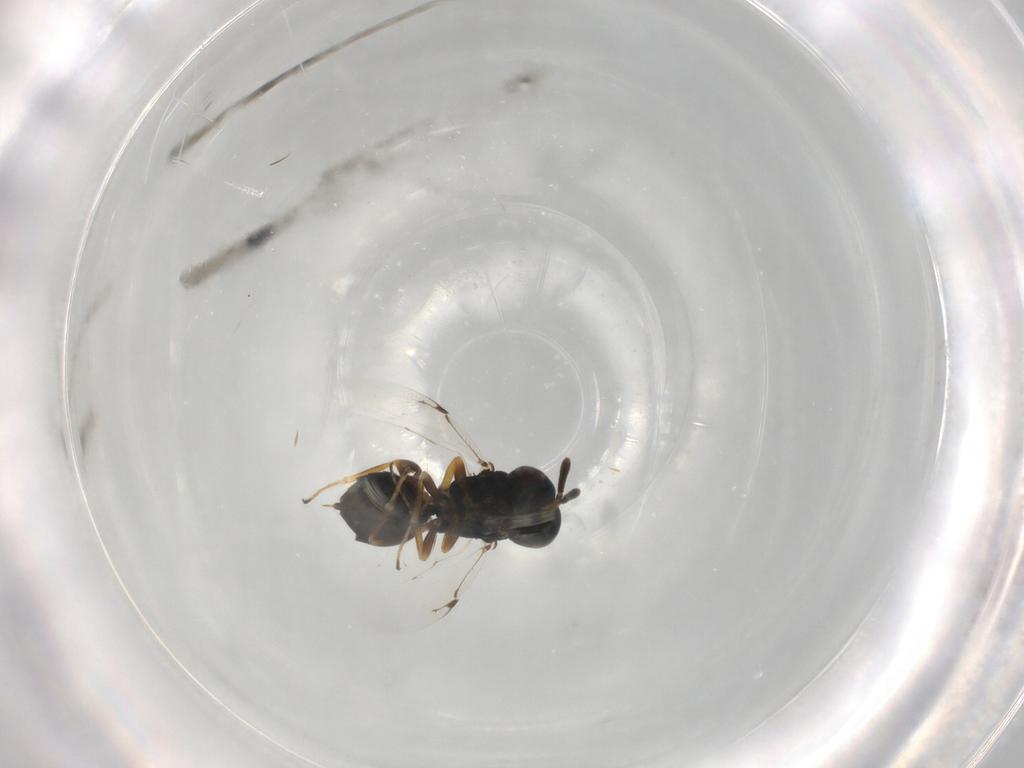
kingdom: Animalia
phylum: Arthropoda
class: Insecta
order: Hymenoptera
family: Pteromalidae
